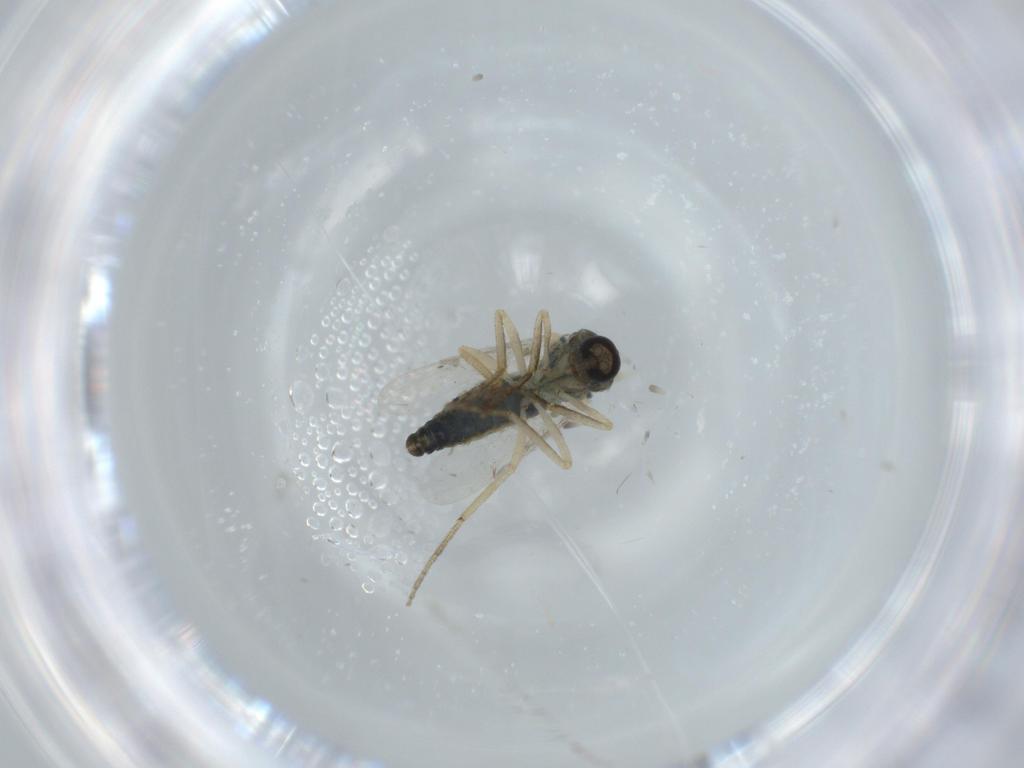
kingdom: Animalia
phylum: Arthropoda
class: Insecta
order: Diptera
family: Ceratopogonidae
